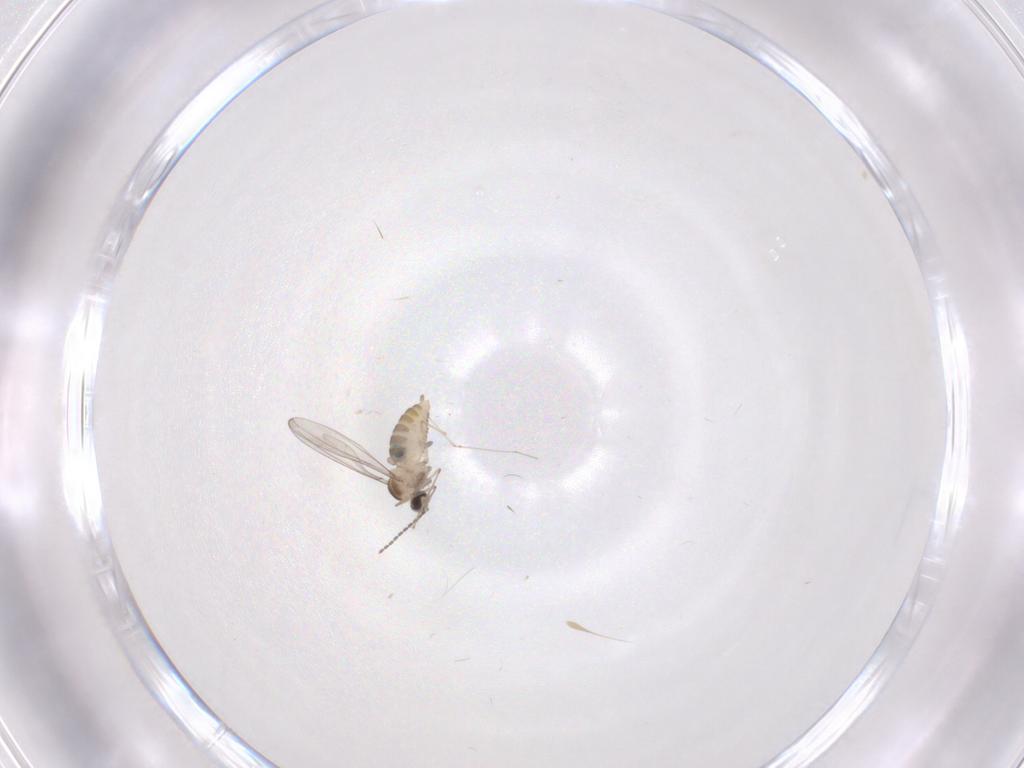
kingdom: Animalia
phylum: Arthropoda
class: Insecta
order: Diptera
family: Cecidomyiidae
